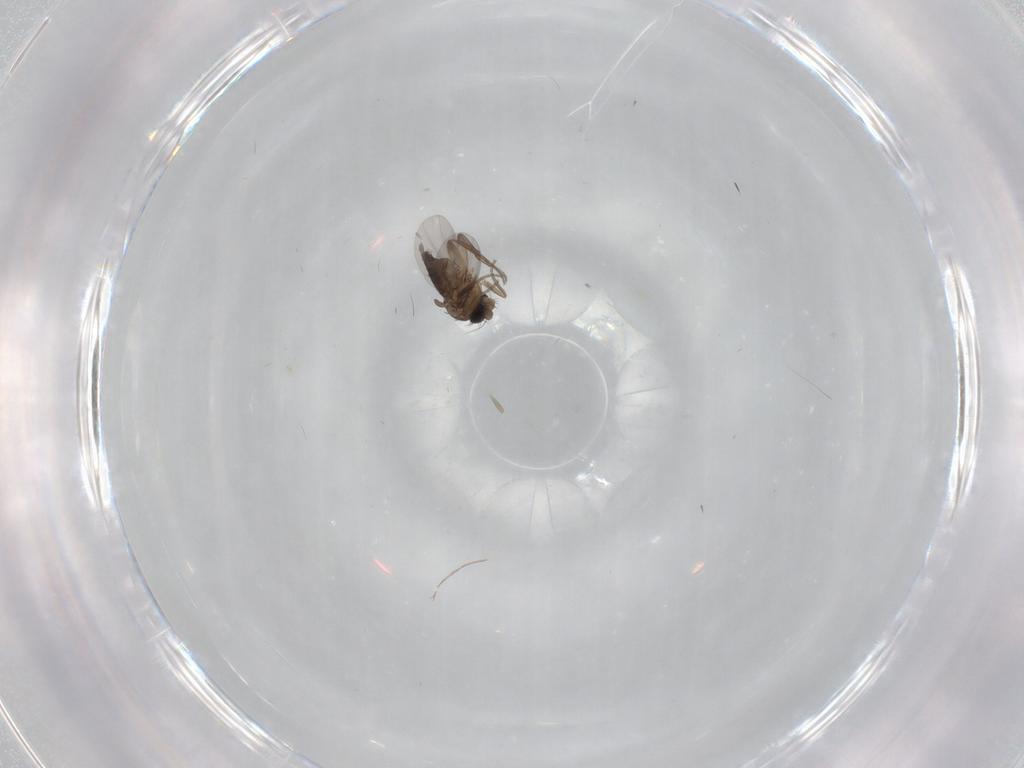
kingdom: Animalia
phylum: Arthropoda
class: Insecta
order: Diptera
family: Phoridae
